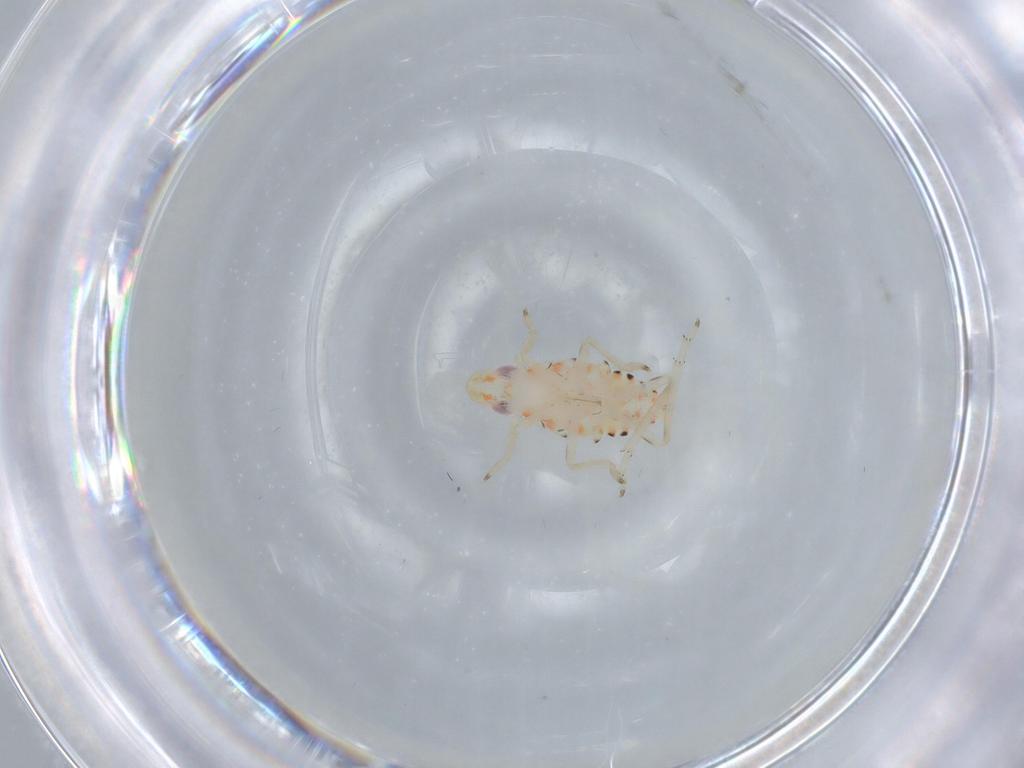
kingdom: Animalia
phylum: Arthropoda
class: Insecta
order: Hemiptera
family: Tropiduchidae
